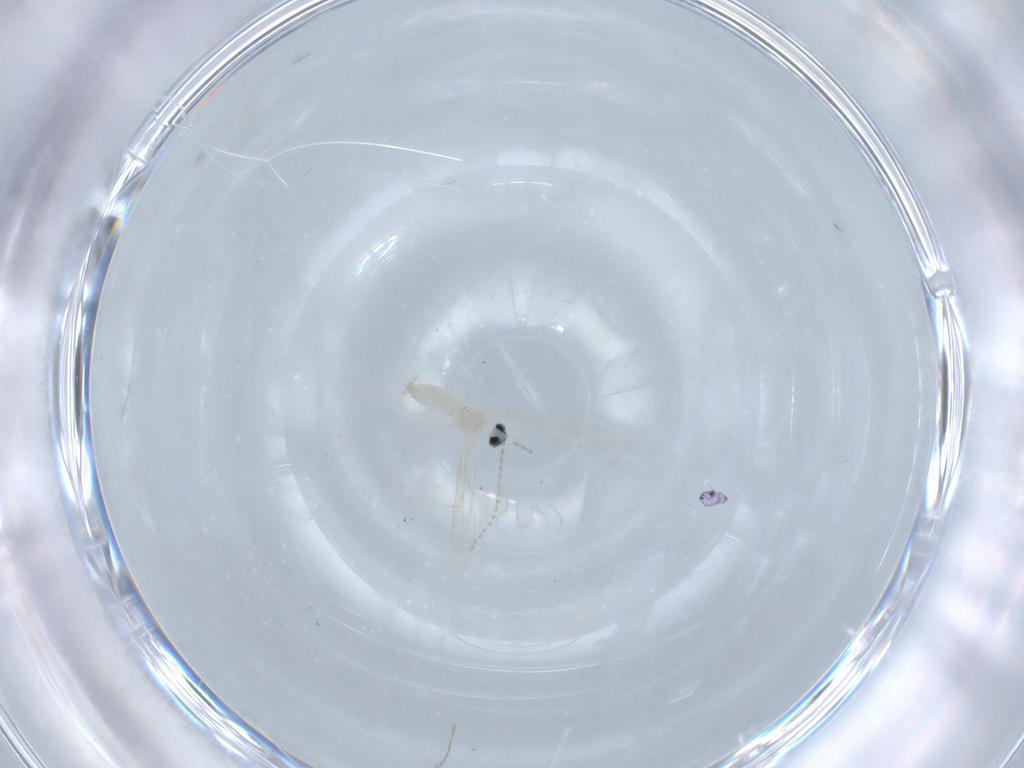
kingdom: Animalia
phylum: Arthropoda
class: Insecta
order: Diptera
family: Cecidomyiidae
